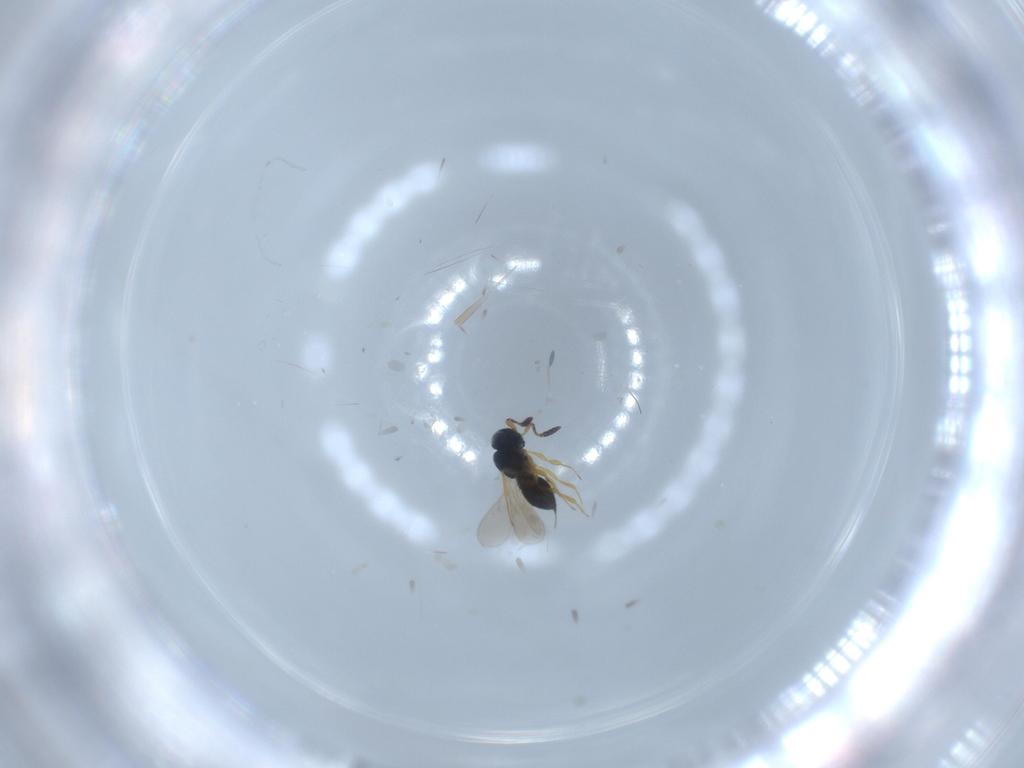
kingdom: Animalia
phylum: Arthropoda
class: Insecta
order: Hymenoptera
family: Scelionidae
